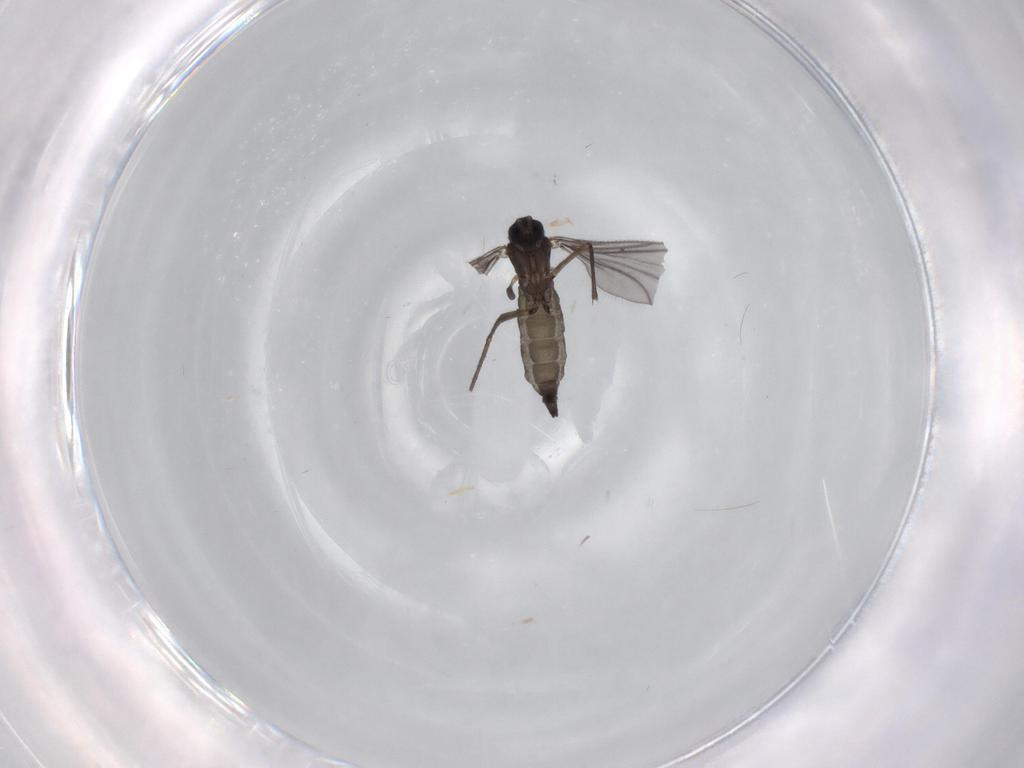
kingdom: Animalia
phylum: Arthropoda
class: Insecta
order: Diptera
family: Sciaridae
